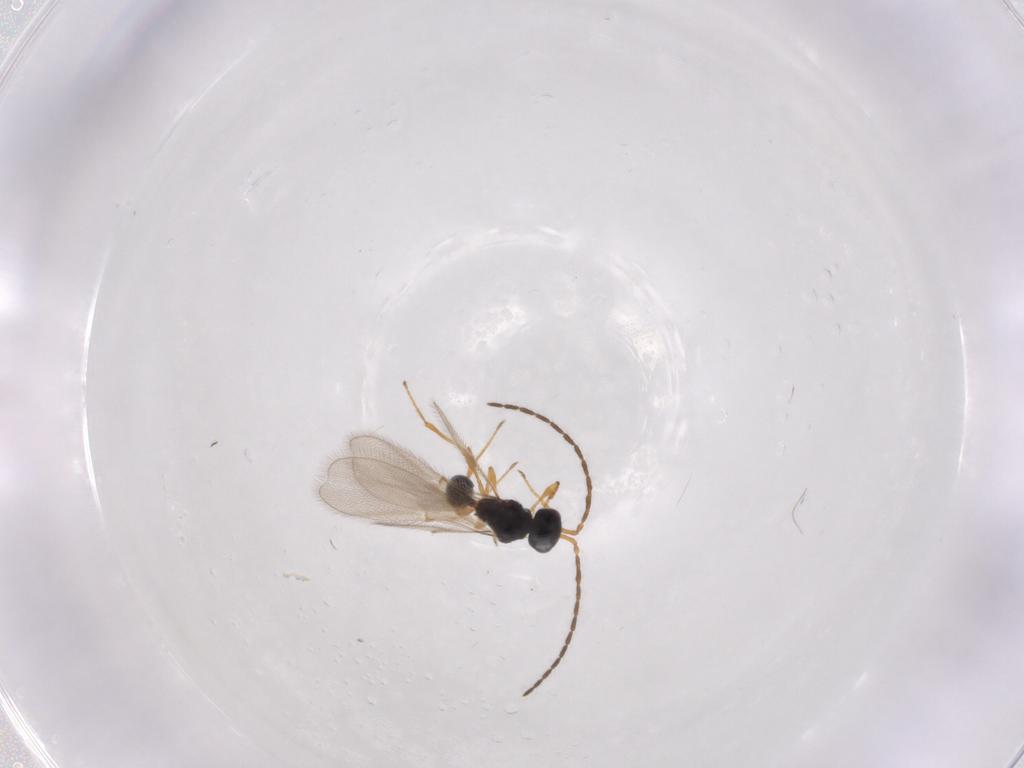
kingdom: Animalia
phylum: Arthropoda
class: Insecta
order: Hymenoptera
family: Diapriidae
